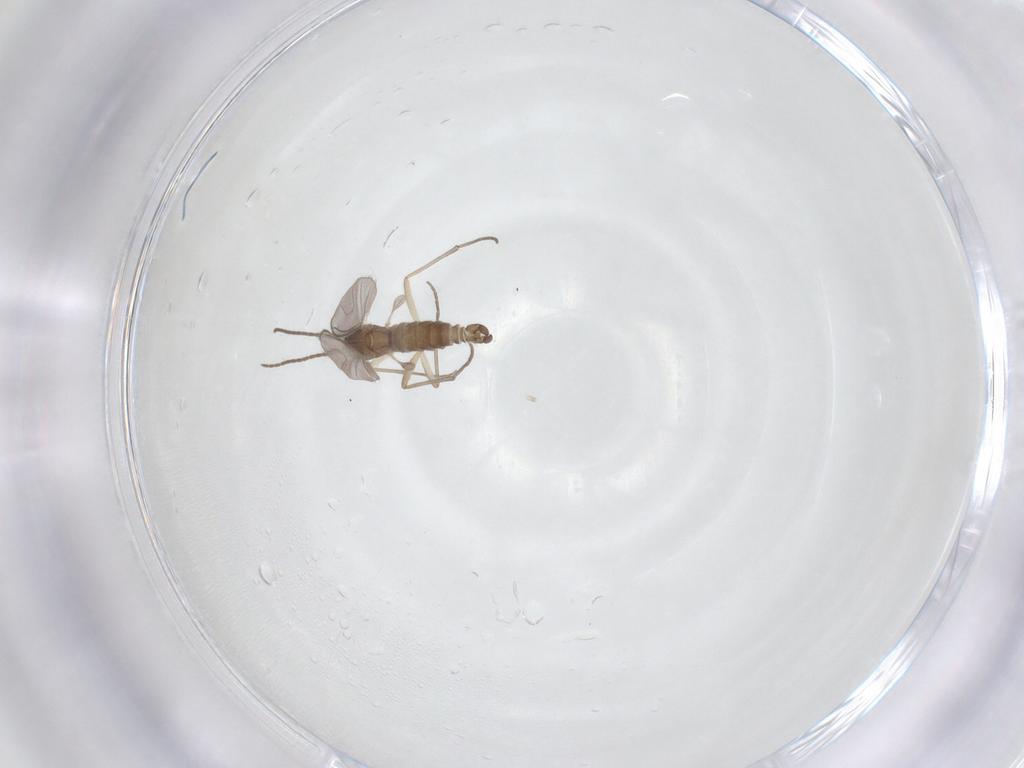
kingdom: Animalia
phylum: Arthropoda
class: Insecta
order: Diptera
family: Sciaridae
